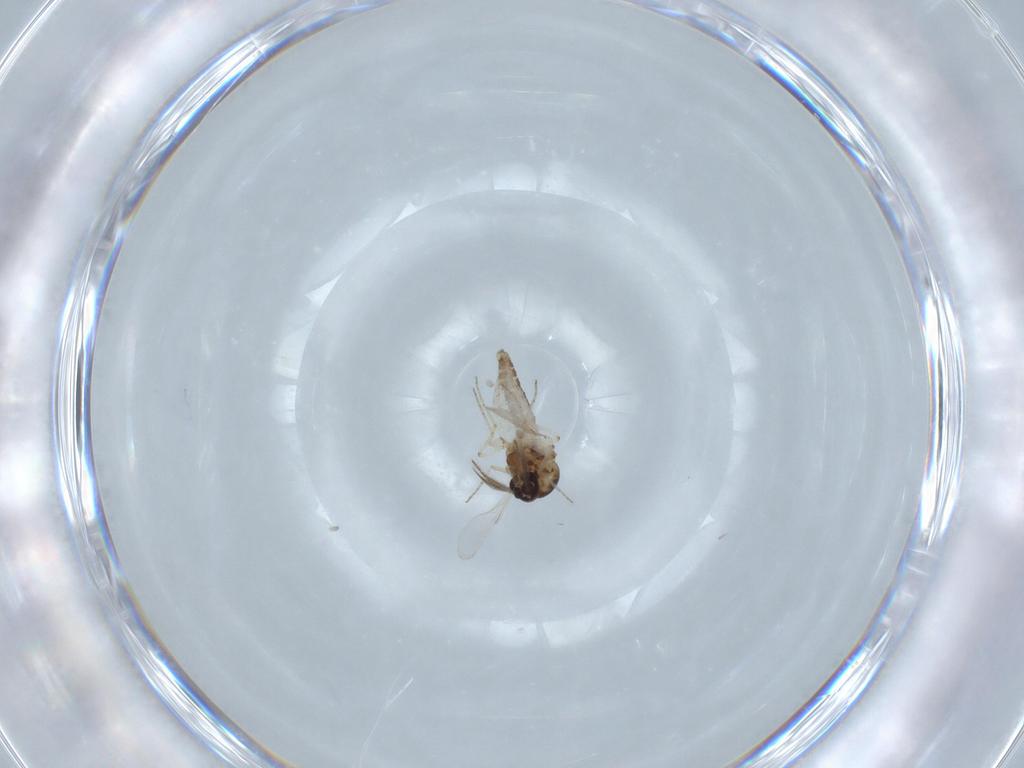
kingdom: Animalia
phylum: Arthropoda
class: Insecta
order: Diptera
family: Ceratopogonidae
